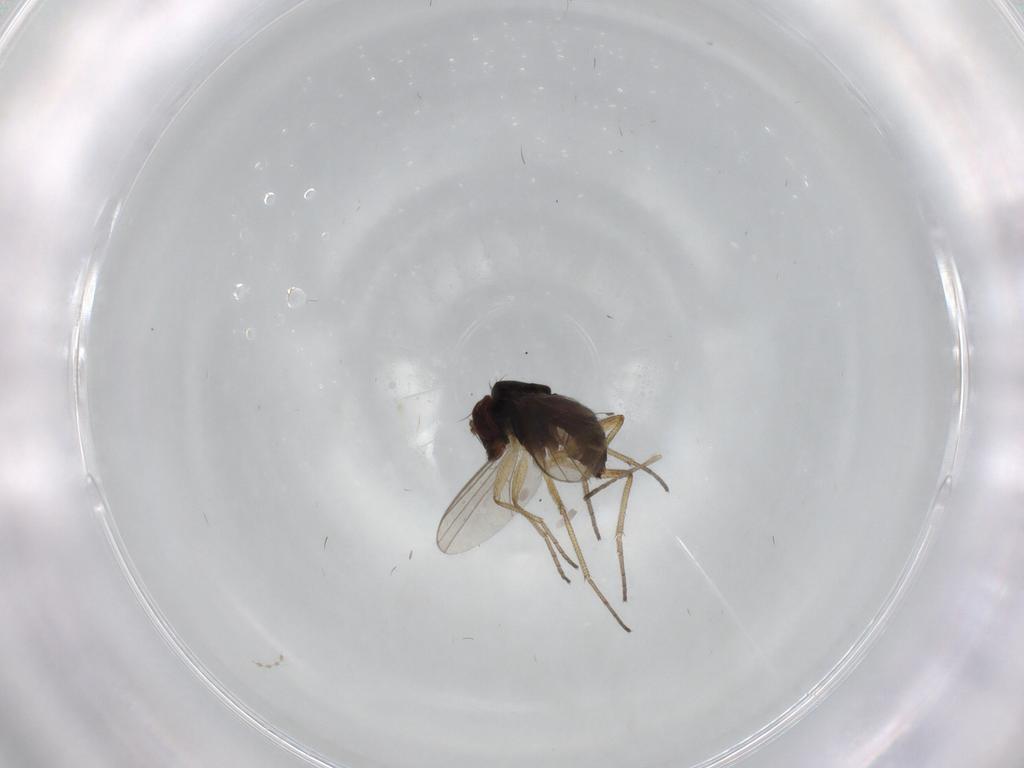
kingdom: Animalia
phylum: Arthropoda
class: Insecta
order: Diptera
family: Dolichopodidae
